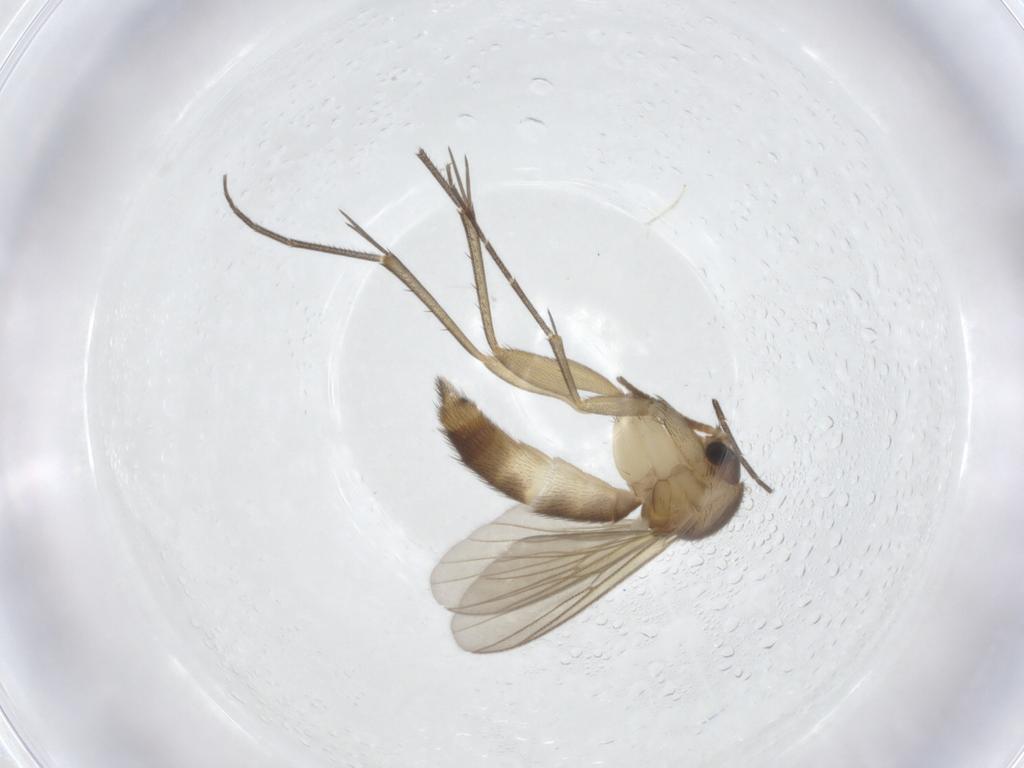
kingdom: Animalia
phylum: Arthropoda
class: Insecta
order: Diptera
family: Mycetophilidae
